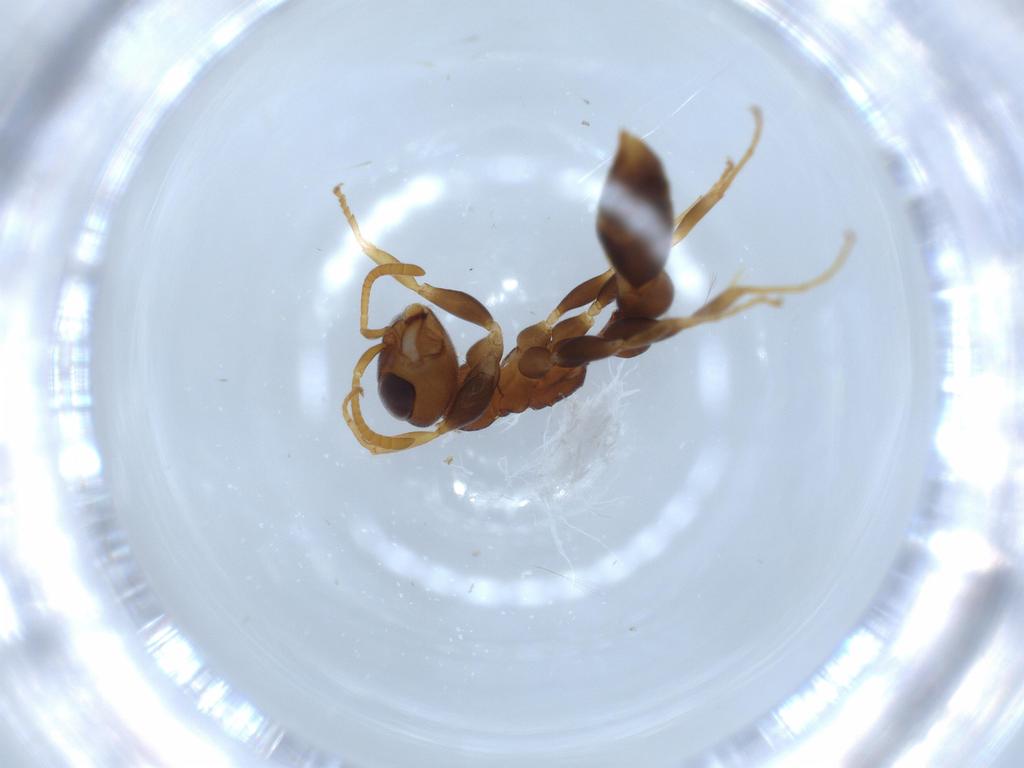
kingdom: Animalia
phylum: Arthropoda
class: Insecta
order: Hymenoptera
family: Formicidae
